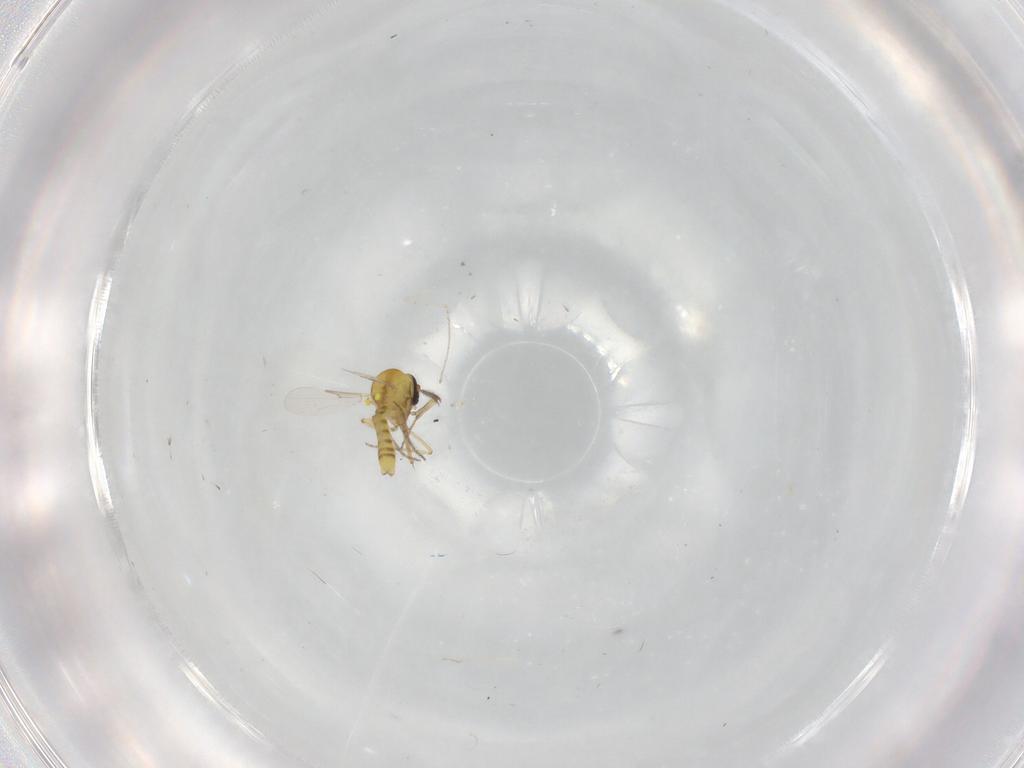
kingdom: Animalia
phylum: Arthropoda
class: Insecta
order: Diptera
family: Ceratopogonidae
